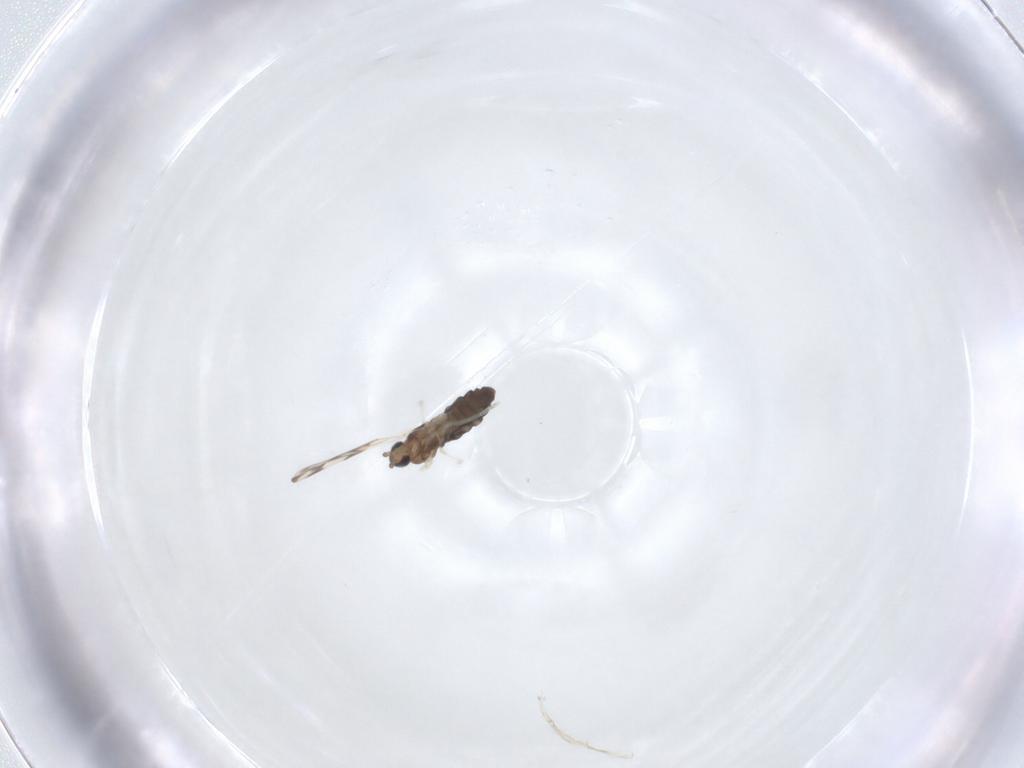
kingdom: Animalia
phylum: Arthropoda
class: Insecta
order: Diptera
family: Cecidomyiidae
